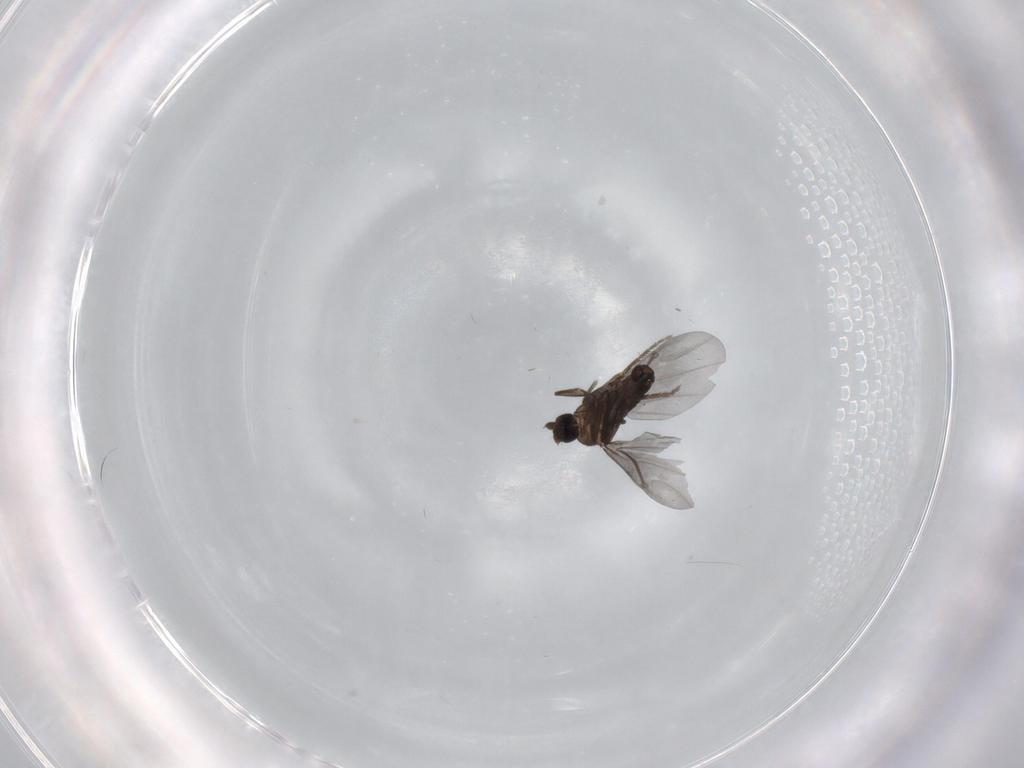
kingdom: Animalia
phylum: Arthropoda
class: Insecta
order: Diptera
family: Phoridae
